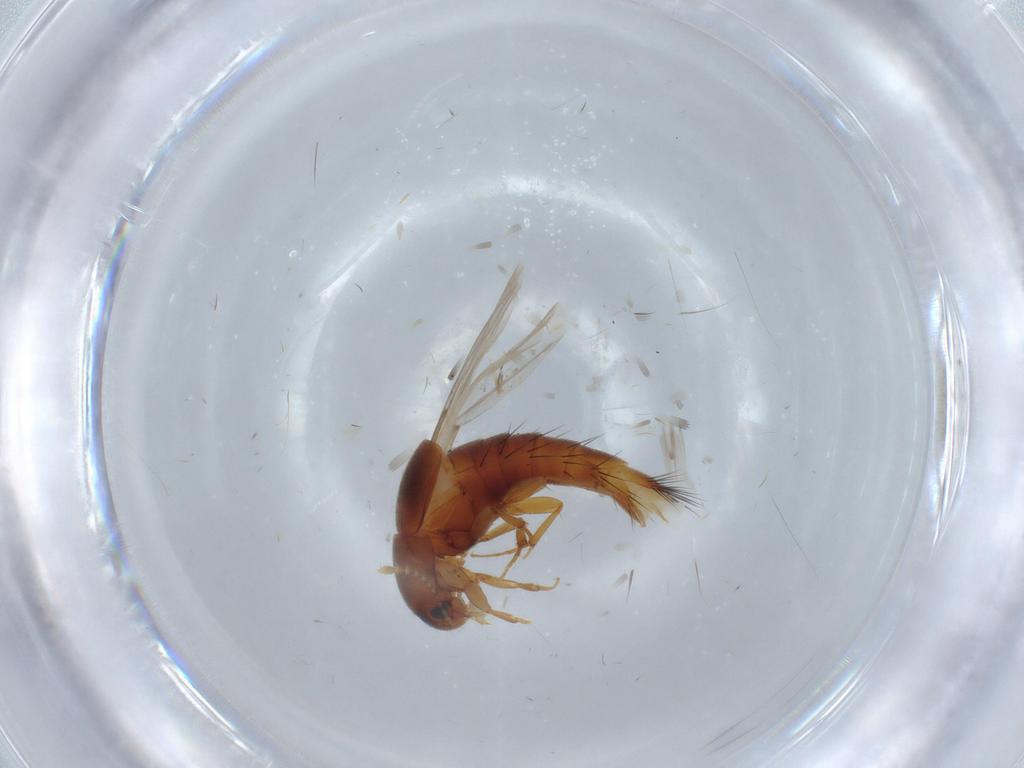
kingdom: Animalia
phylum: Arthropoda
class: Insecta
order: Coleoptera
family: Staphylinidae
